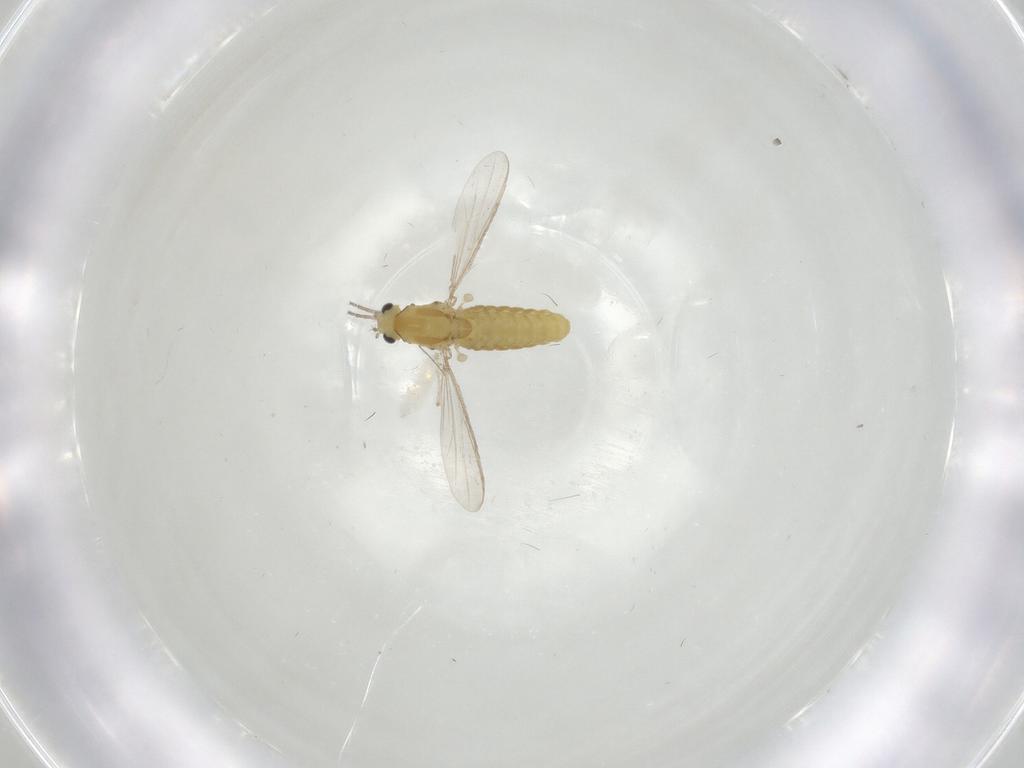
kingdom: Animalia
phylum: Arthropoda
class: Insecta
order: Diptera
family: Chironomidae
